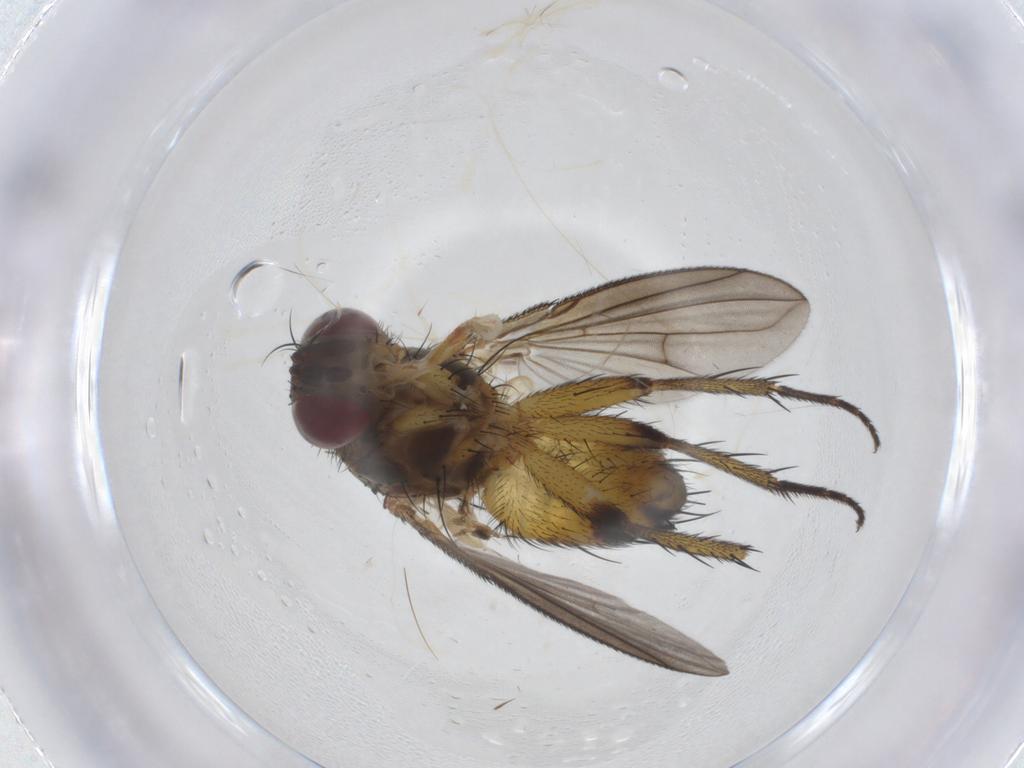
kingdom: Animalia
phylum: Arthropoda
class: Insecta
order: Diptera
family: Tachinidae
